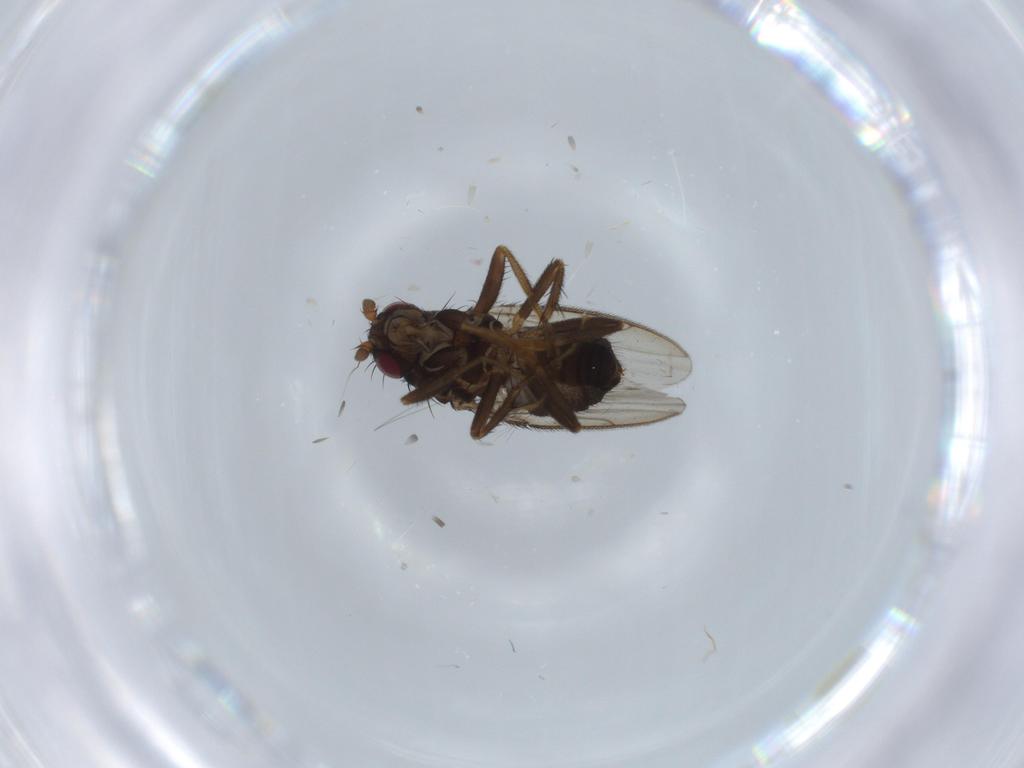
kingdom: Animalia
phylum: Arthropoda
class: Insecta
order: Diptera
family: Sphaeroceridae
